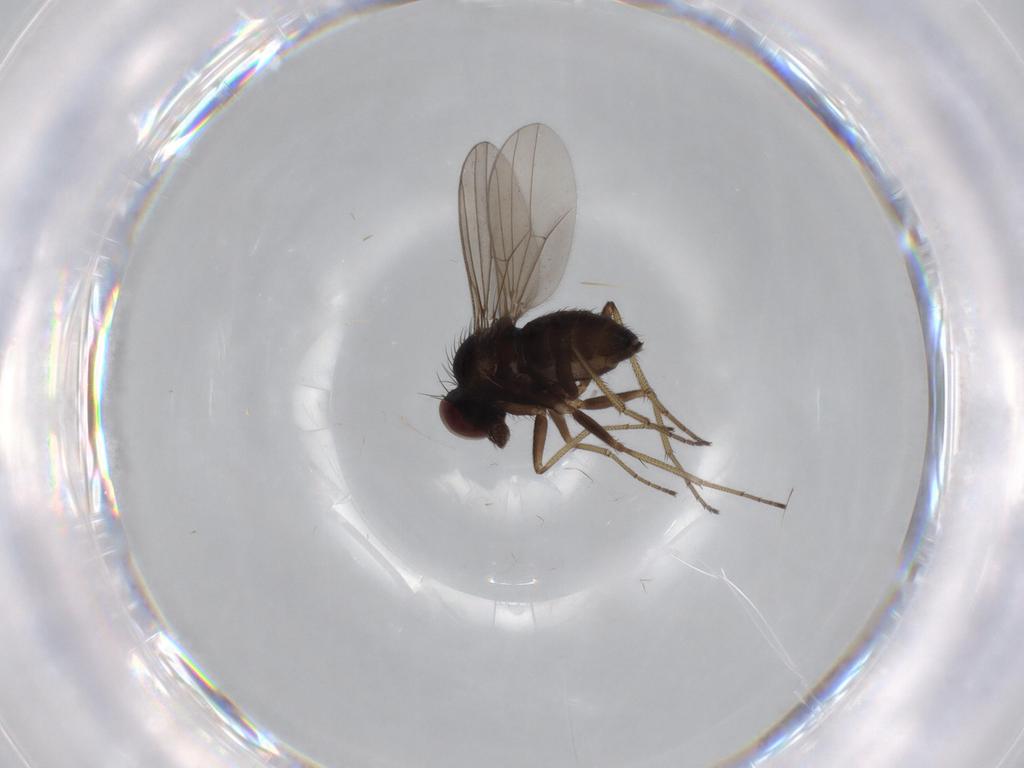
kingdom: Animalia
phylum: Arthropoda
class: Insecta
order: Diptera
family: Dolichopodidae
